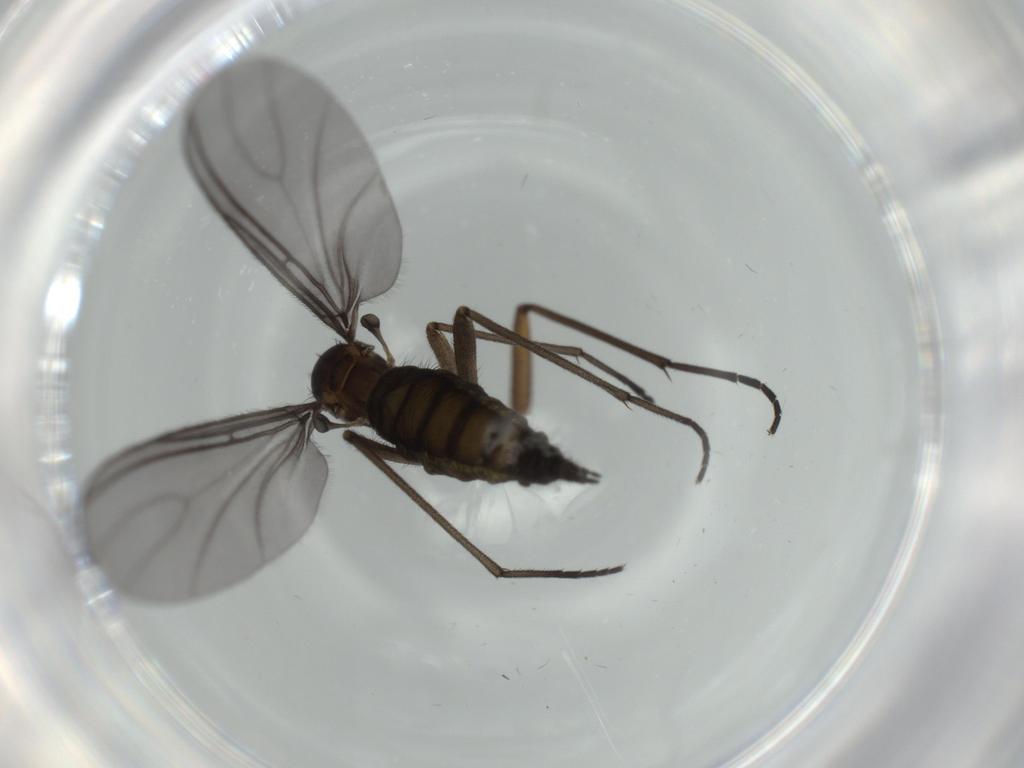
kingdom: Animalia
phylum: Arthropoda
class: Insecta
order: Diptera
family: Sciaridae
